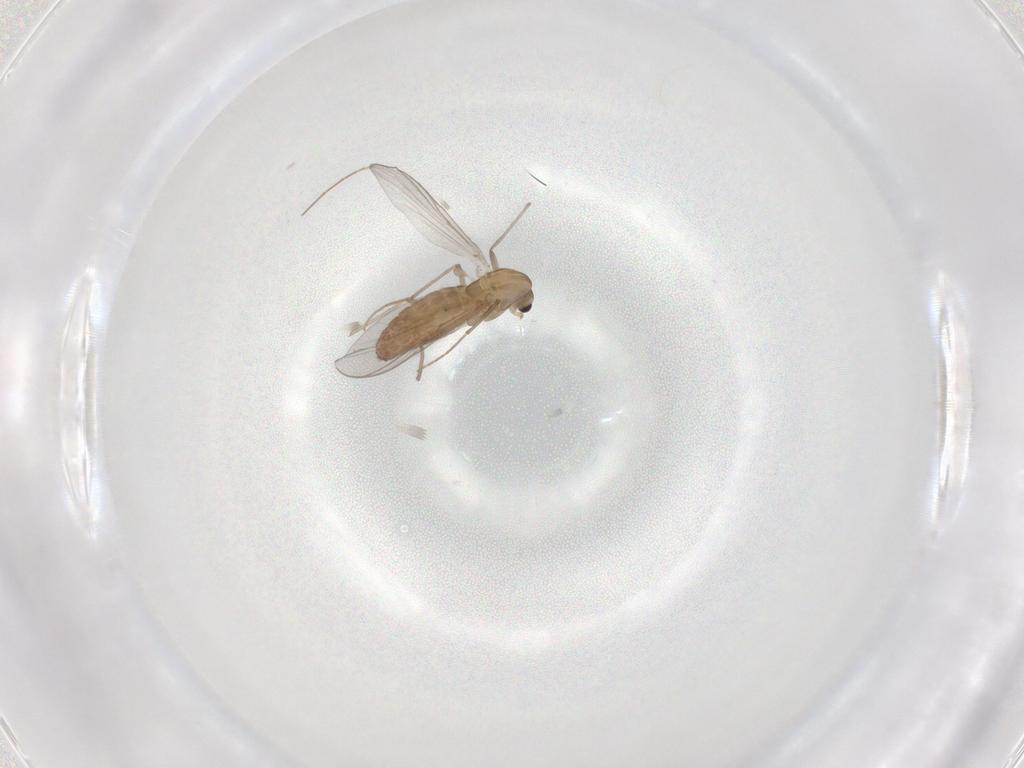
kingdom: Animalia
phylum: Arthropoda
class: Insecta
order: Diptera
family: Chironomidae
